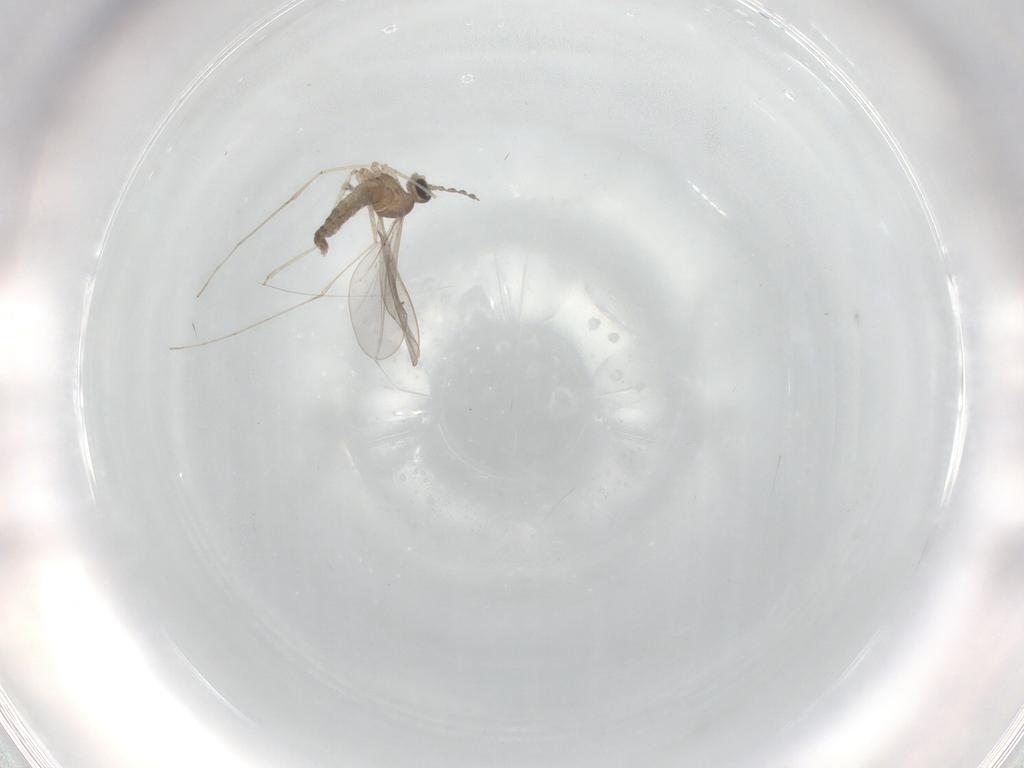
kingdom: Animalia
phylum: Arthropoda
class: Insecta
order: Diptera
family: Cecidomyiidae
